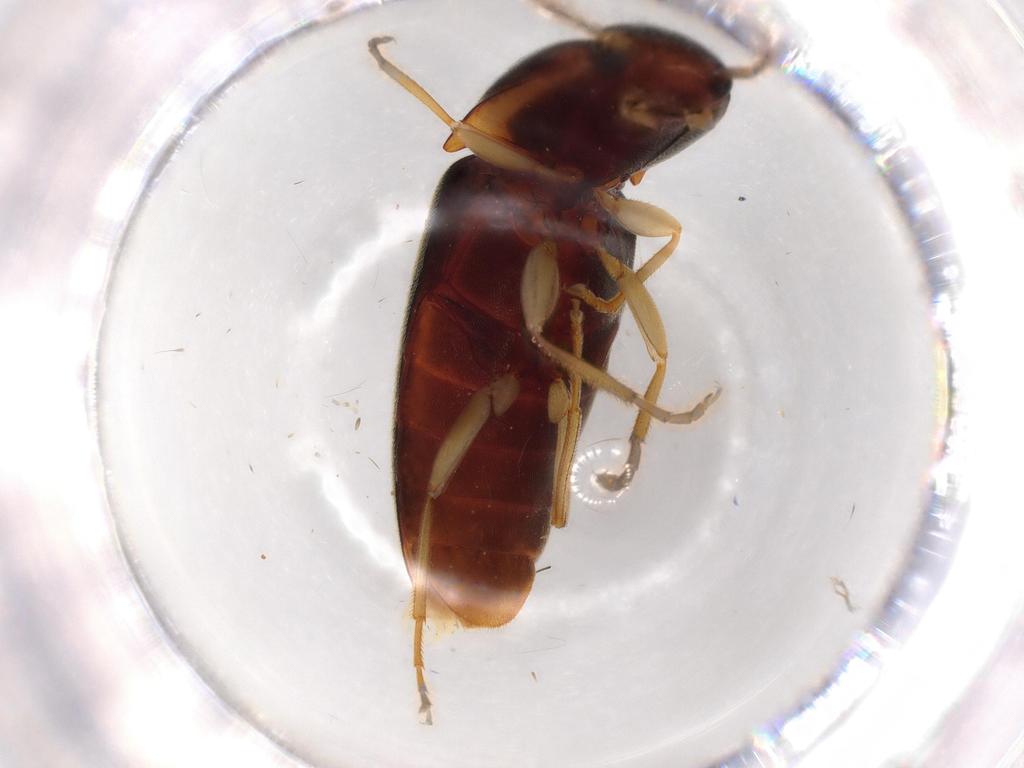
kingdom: Animalia
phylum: Arthropoda
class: Insecta
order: Coleoptera
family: Elateridae
